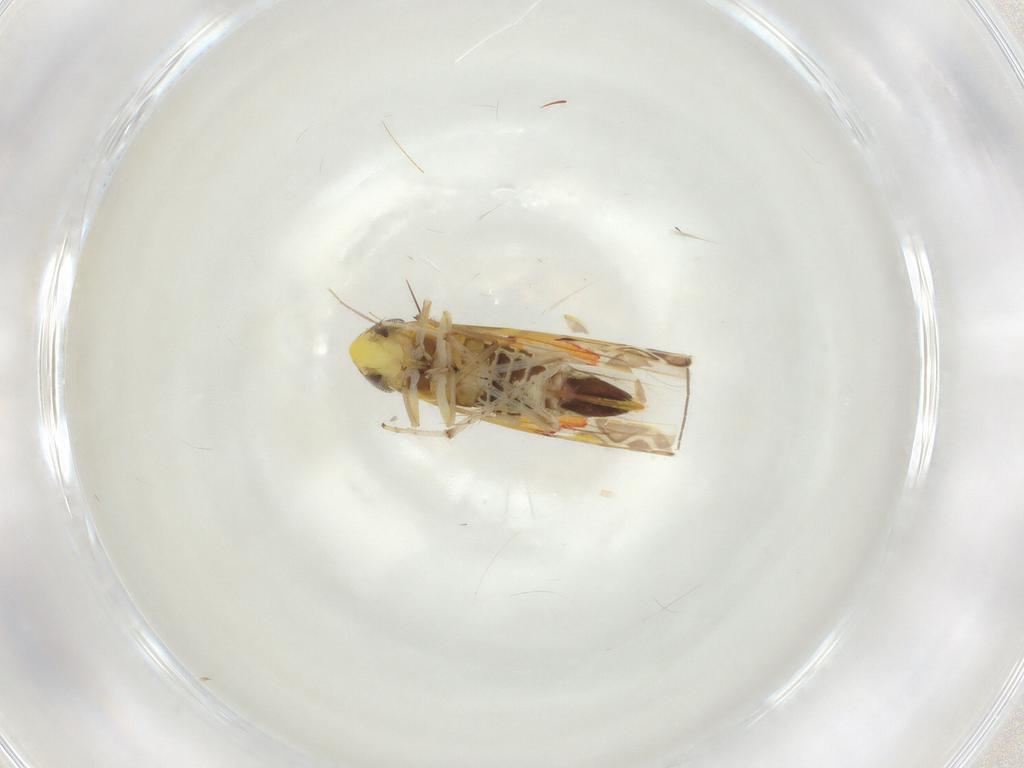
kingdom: Animalia
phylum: Arthropoda
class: Insecta
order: Hemiptera
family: Cicadellidae
